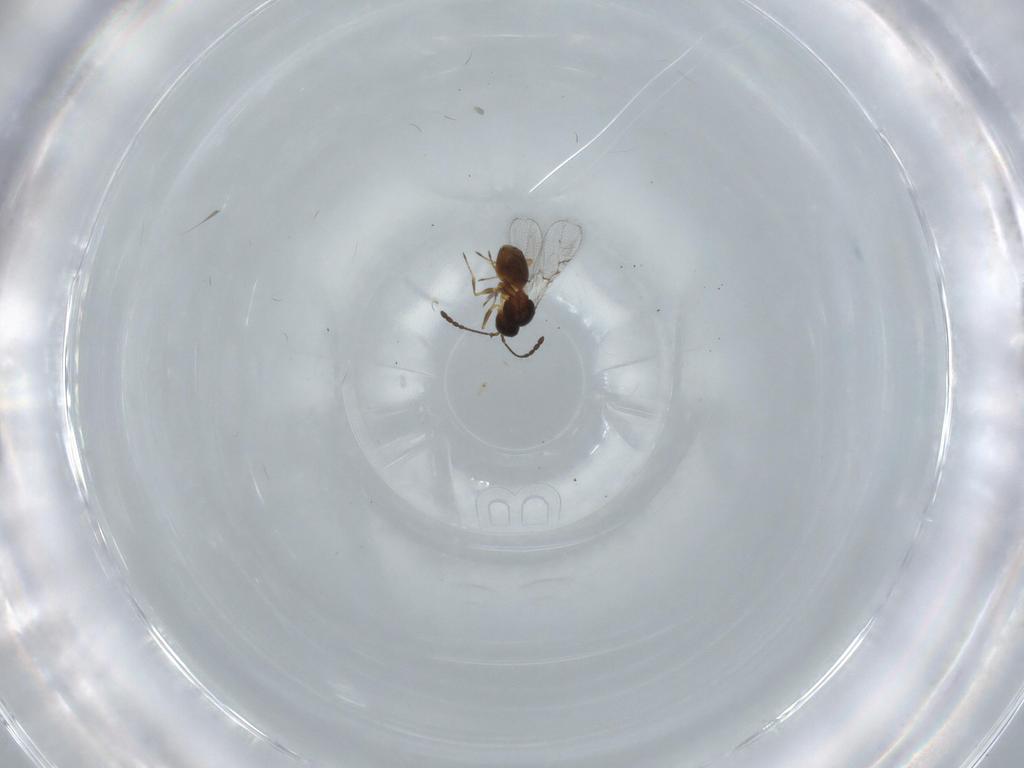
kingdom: Animalia
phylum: Arthropoda
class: Insecta
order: Hymenoptera
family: Figitidae
